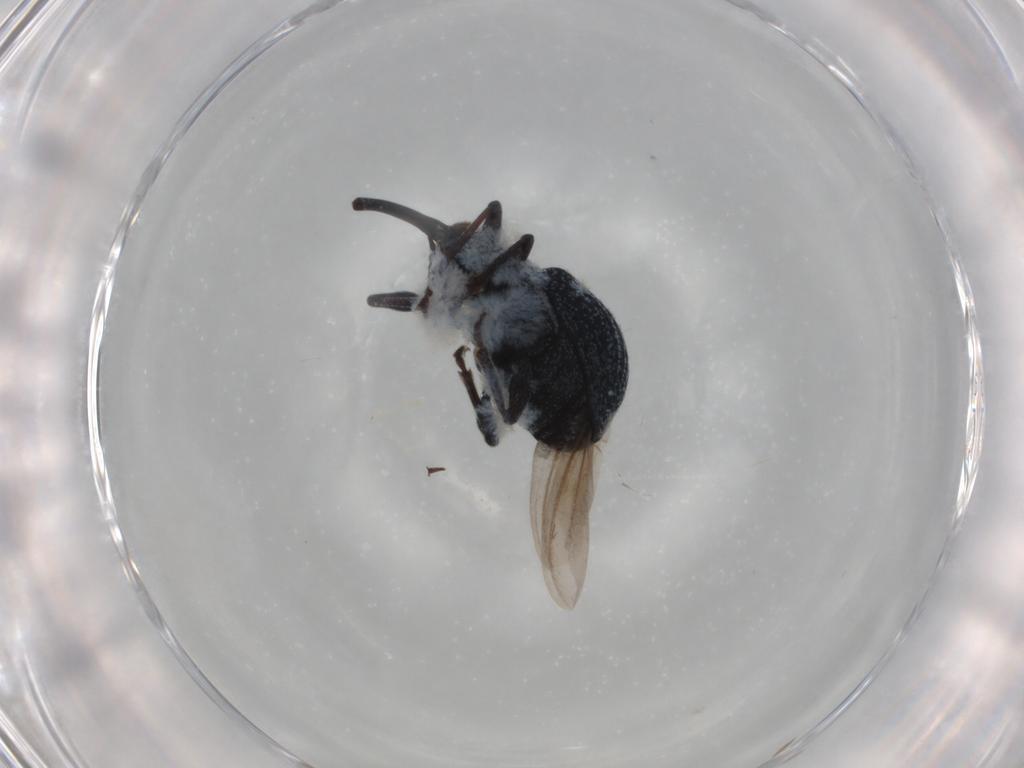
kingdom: Animalia
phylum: Arthropoda
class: Insecta
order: Coleoptera
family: Brentidae
